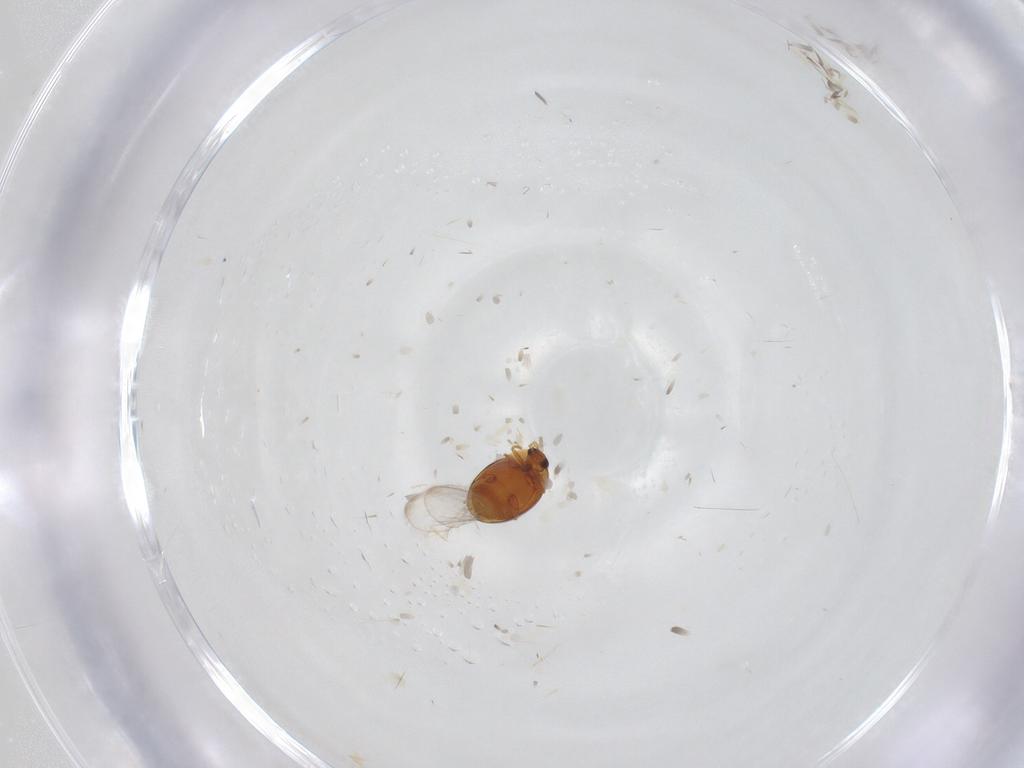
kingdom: Animalia
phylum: Arthropoda
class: Insecta
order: Coleoptera
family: Corylophidae
